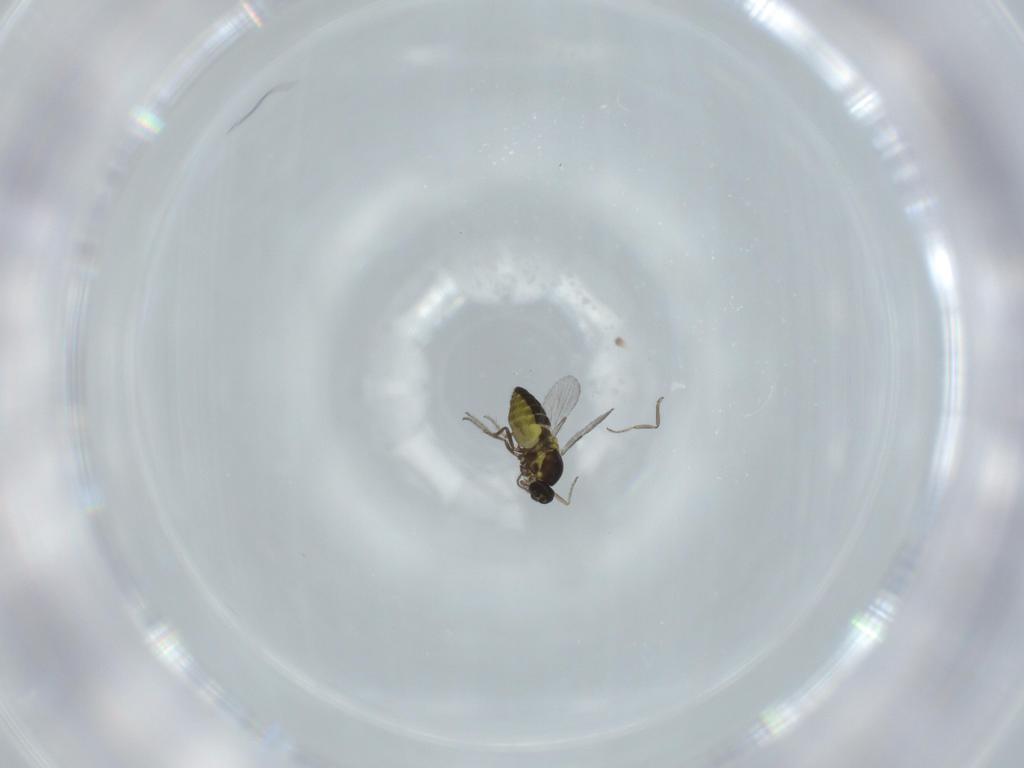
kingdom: Animalia
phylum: Arthropoda
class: Insecta
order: Diptera
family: Ceratopogonidae
